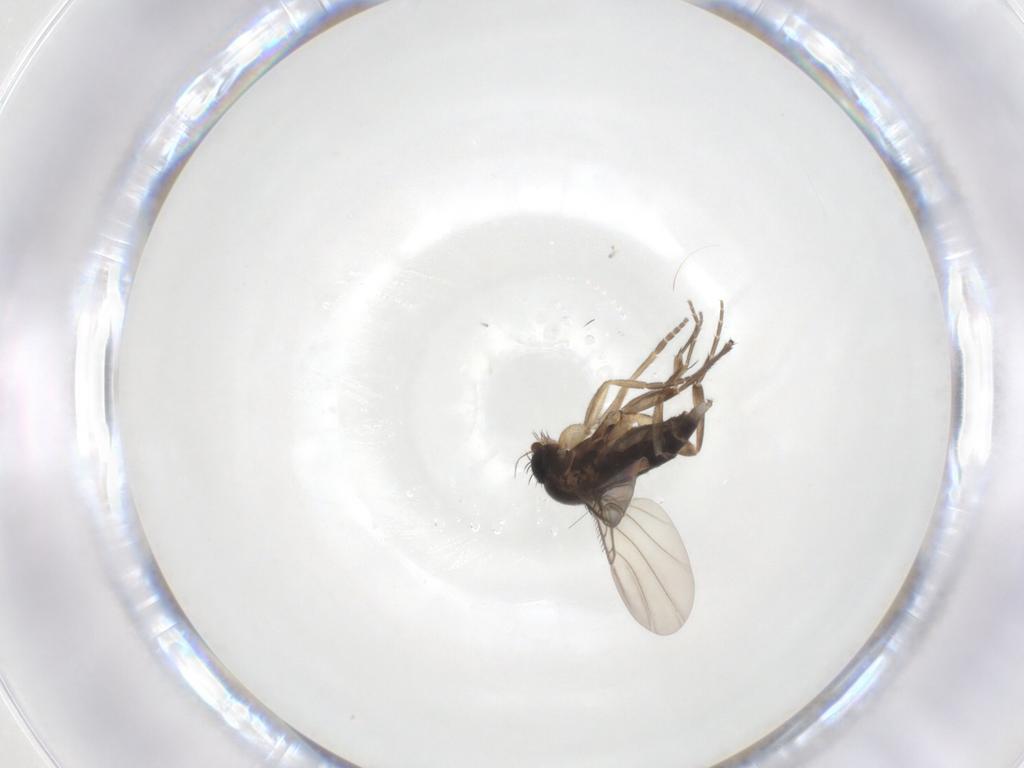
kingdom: Animalia
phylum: Arthropoda
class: Insecta
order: Diptera
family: Phoridae
